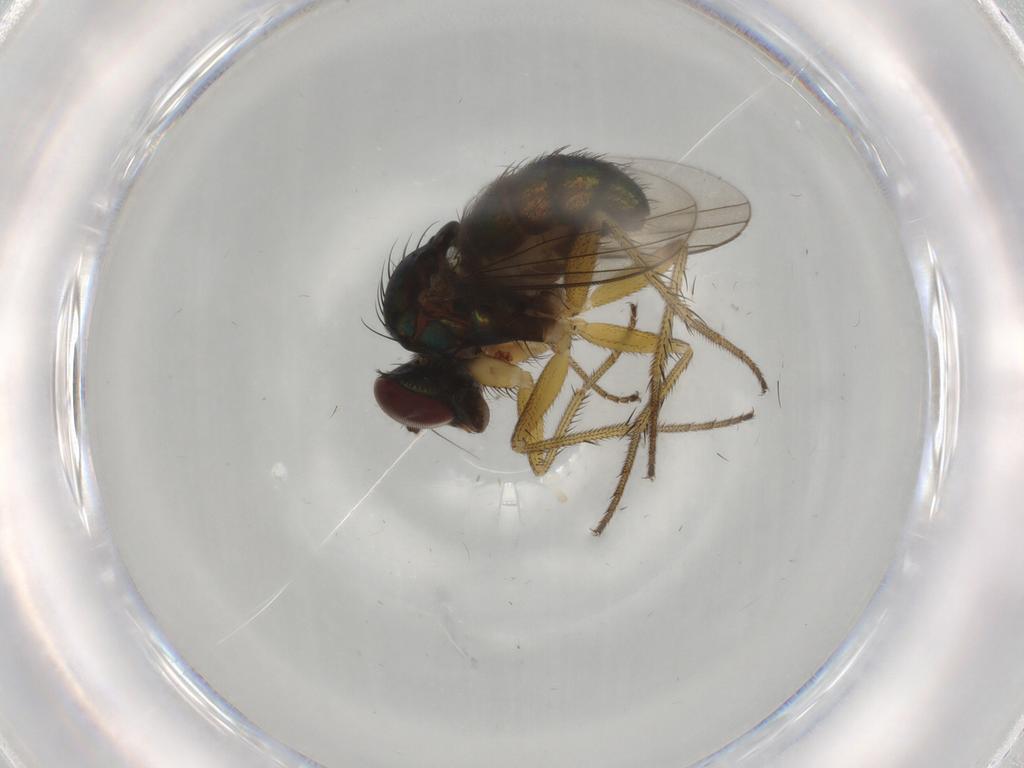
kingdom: Animalia
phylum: Arthropoda
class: Insecta
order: Diptera
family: Dolichopodidae
